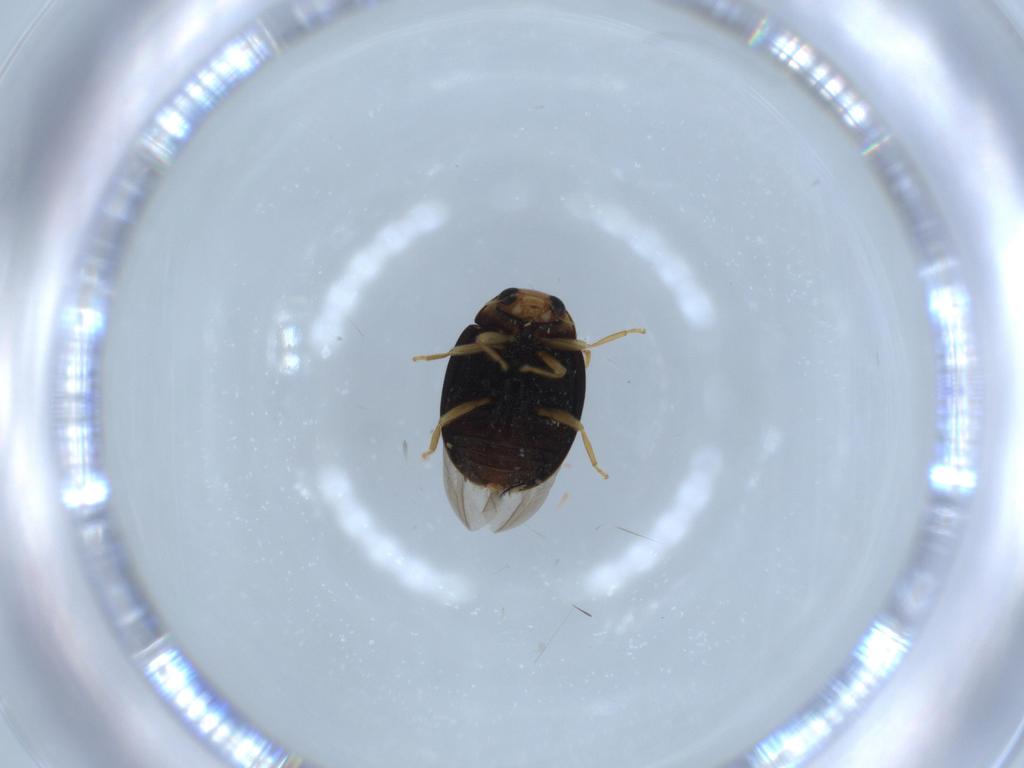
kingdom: Animalia
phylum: Arthropoda
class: Insecta
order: Coleoptera
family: Coccinellidae
